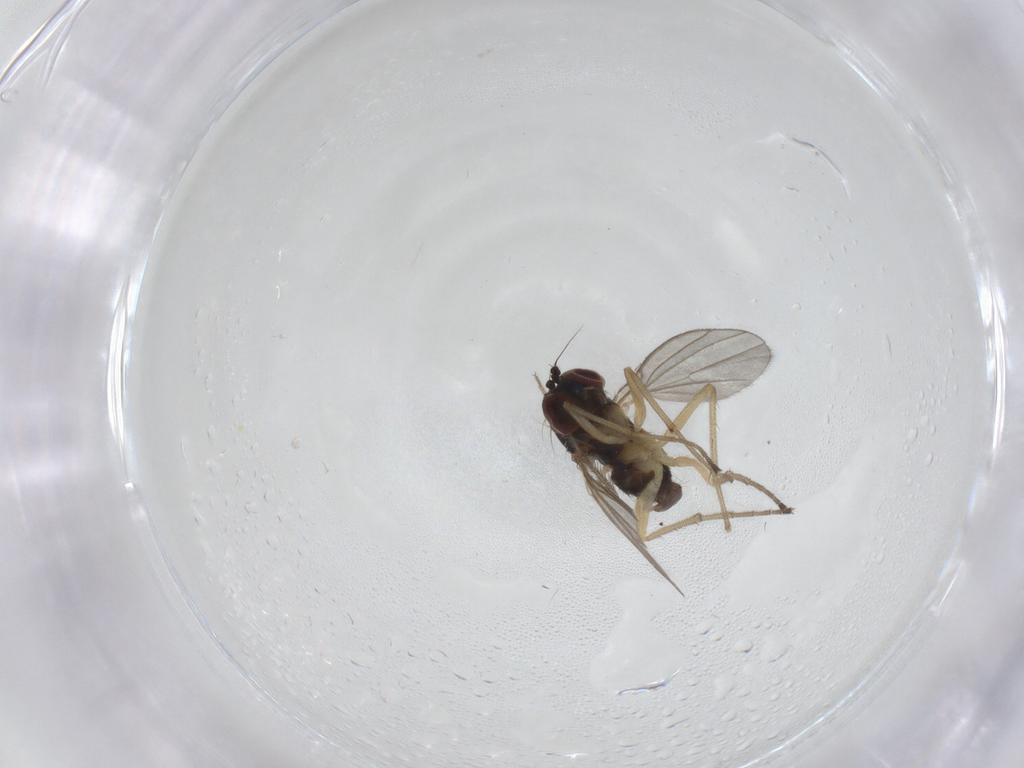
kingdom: Animalia
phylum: Arthropoda
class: Insecta
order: Diptera
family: Dolichopodidae
